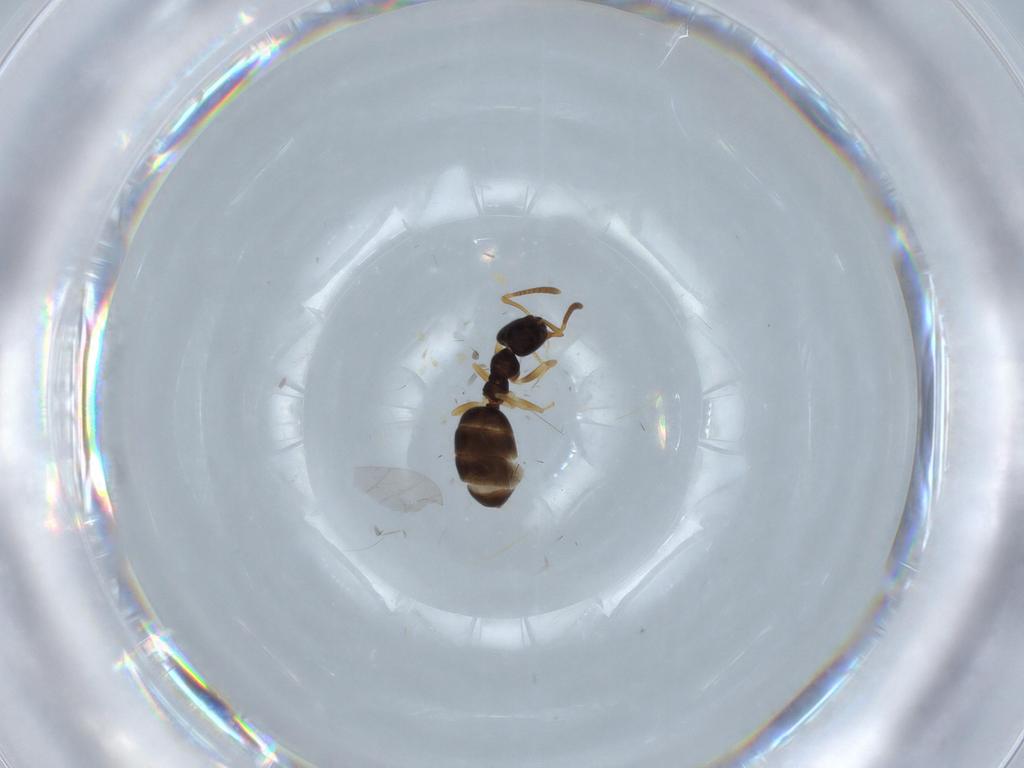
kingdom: Animalia
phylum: Arthropoda
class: Insecta
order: Hymenoptera
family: Formicidae
